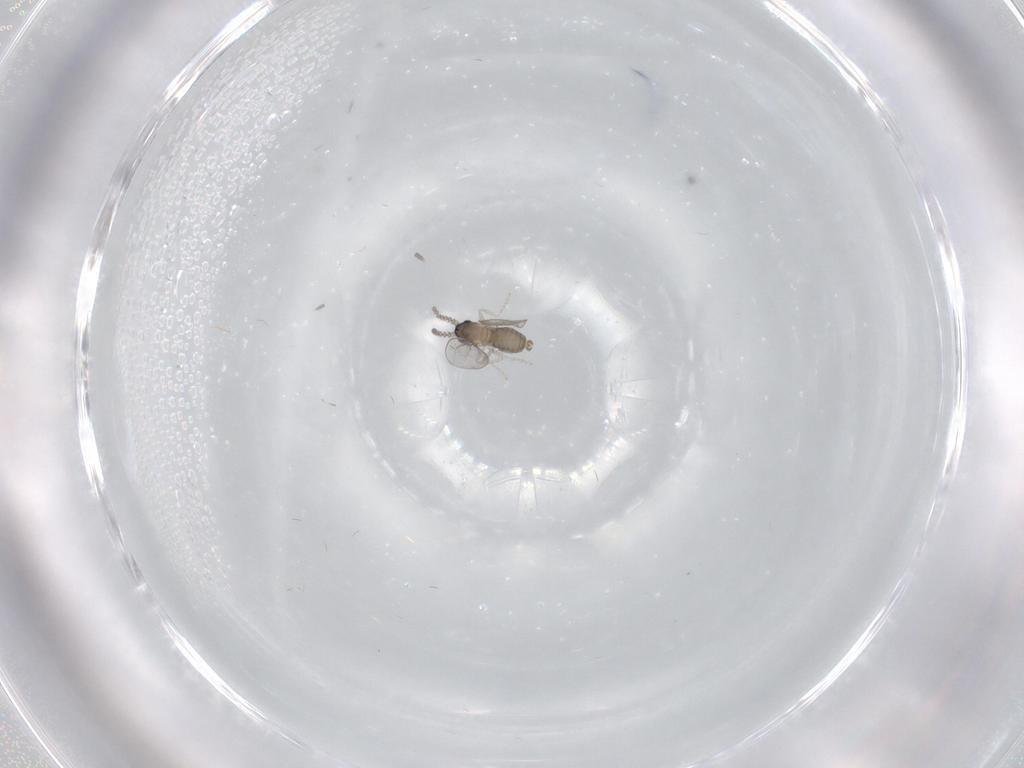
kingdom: Animalia
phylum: Arthropoda
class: Insecta
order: Diptera
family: Cecidomyiidae
